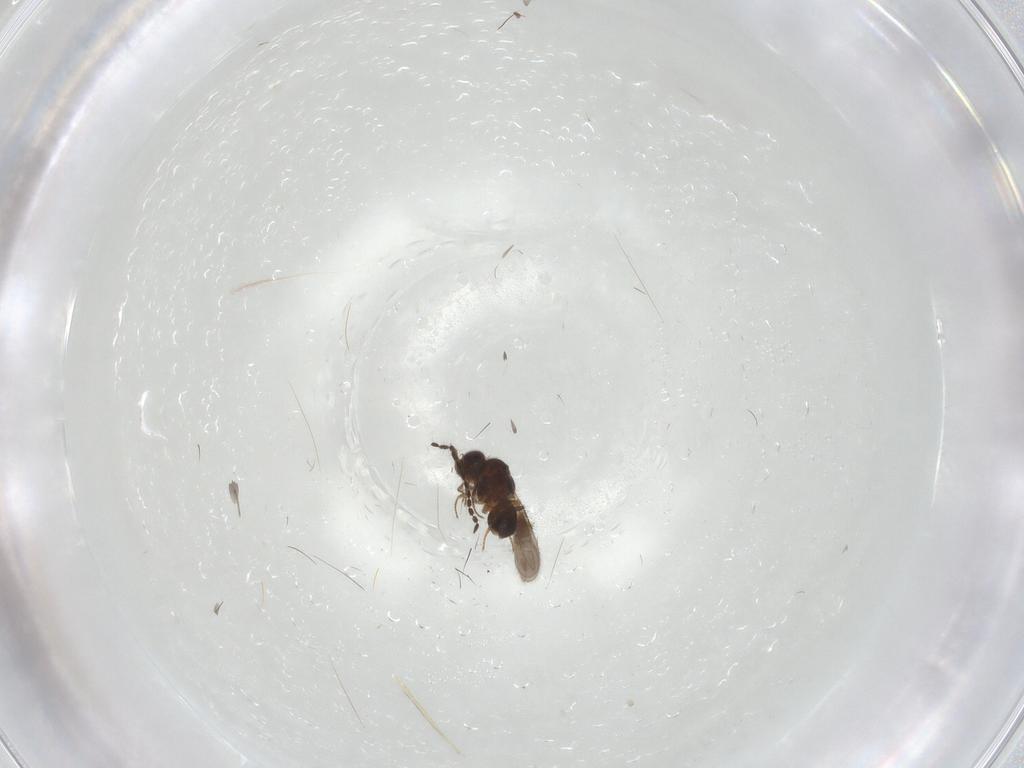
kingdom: Animalia
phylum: Arthropoda
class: Insecta
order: Hymenoptera
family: Ceraphronidae
